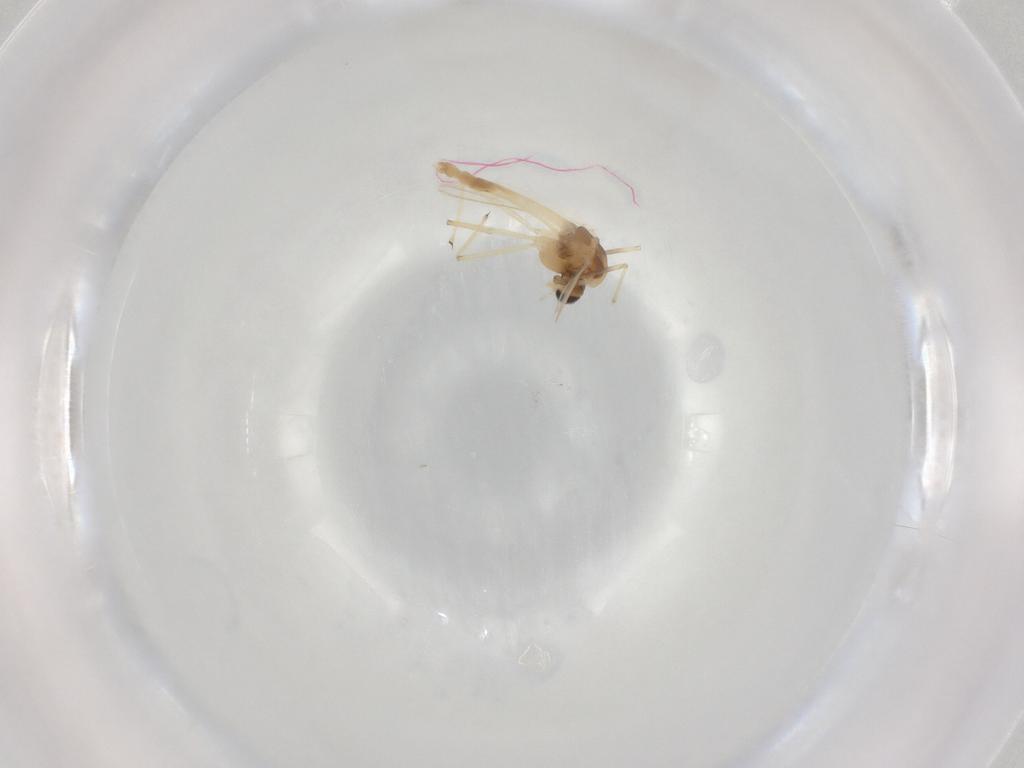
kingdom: Animalia
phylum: Arthropoda
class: Insecta
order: Diptera
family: Chironomidae
